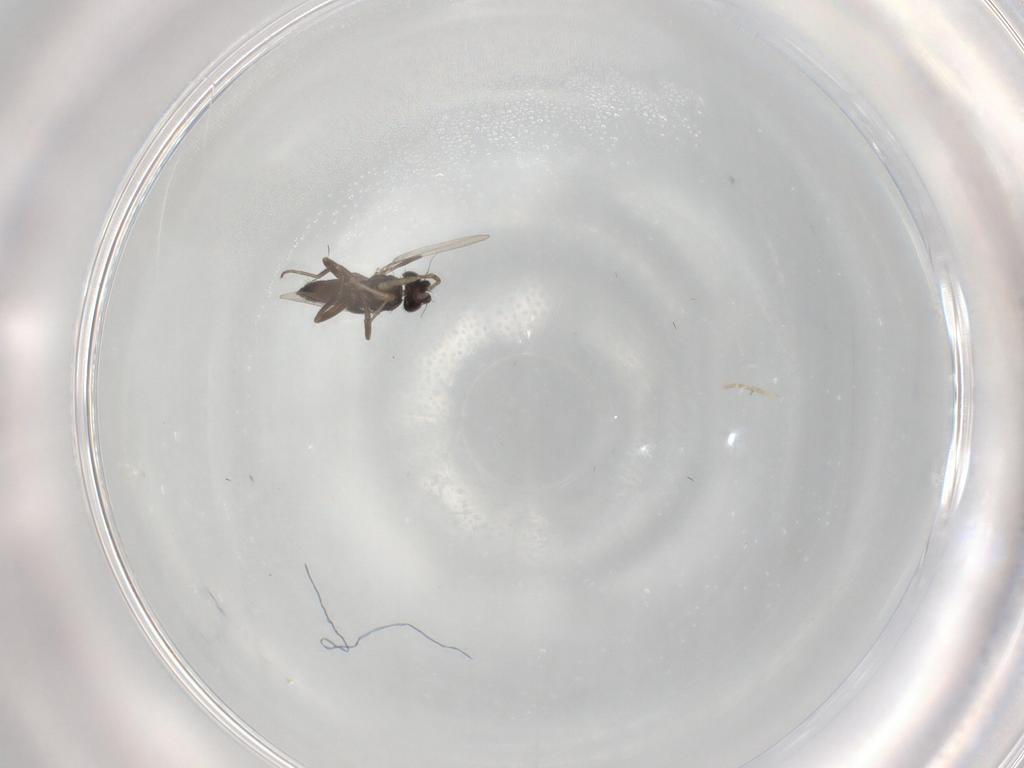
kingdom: Animalia
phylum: Arthropoda
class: Insecta
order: Diptera
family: Phoridae
